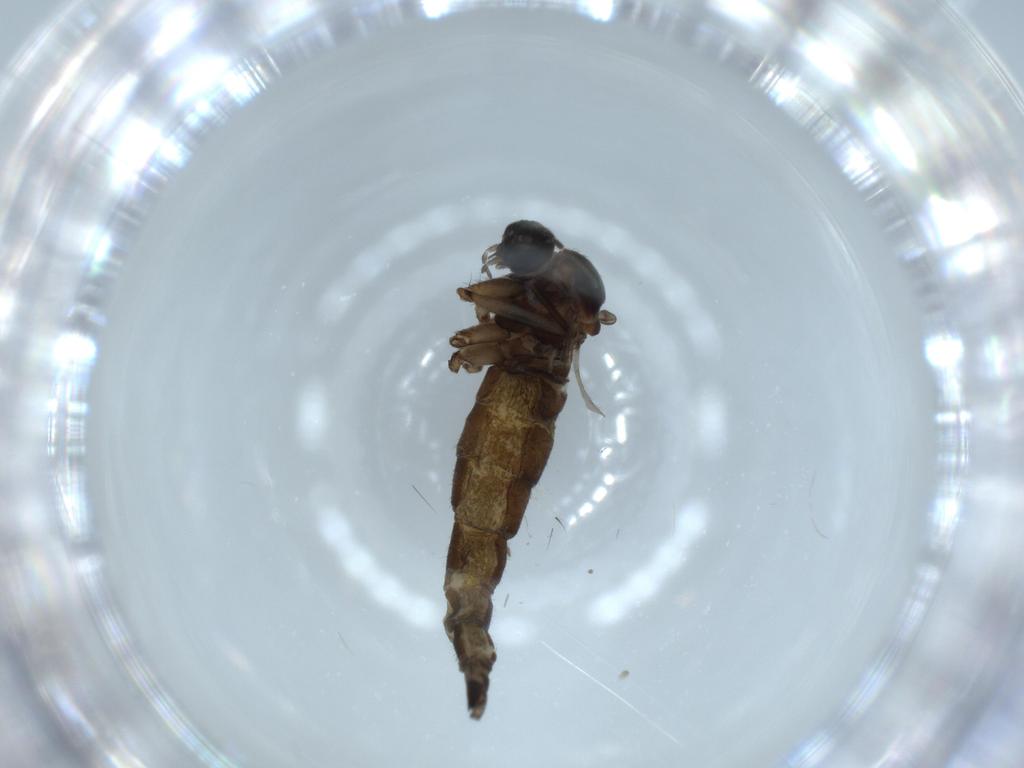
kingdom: Animalia
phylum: Arthropoda
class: Insecta
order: Diptera
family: Sciaridae
